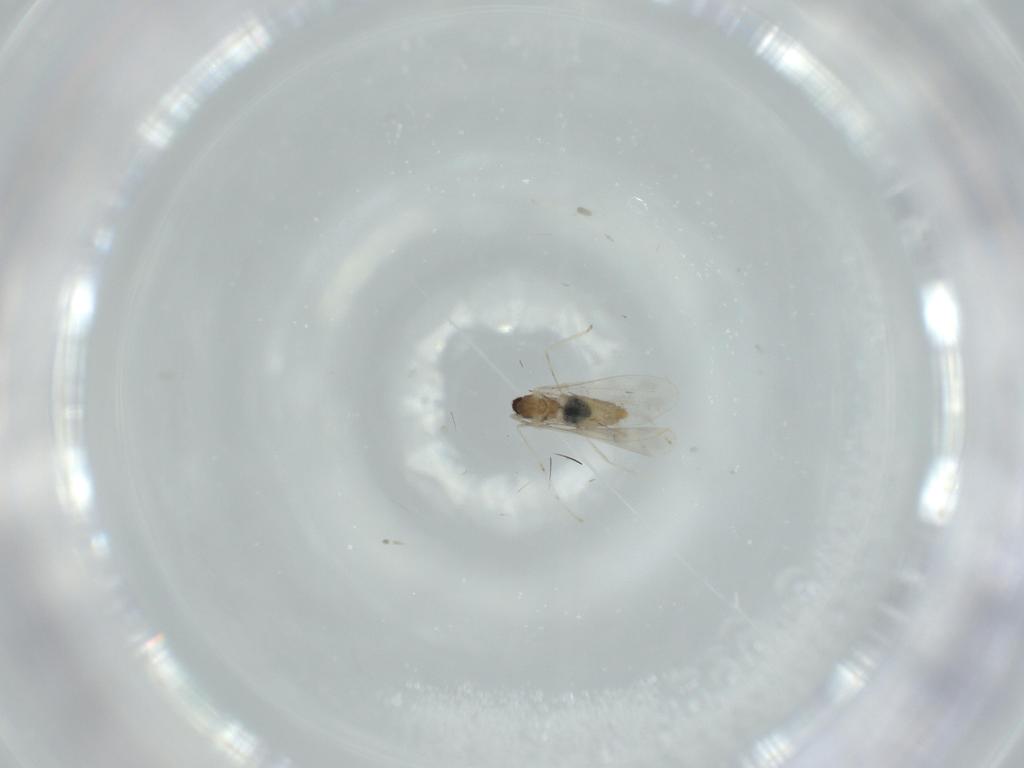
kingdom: Animalia
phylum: Arthropoda
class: Insecta
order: Diptera
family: Cecidomyiidae
